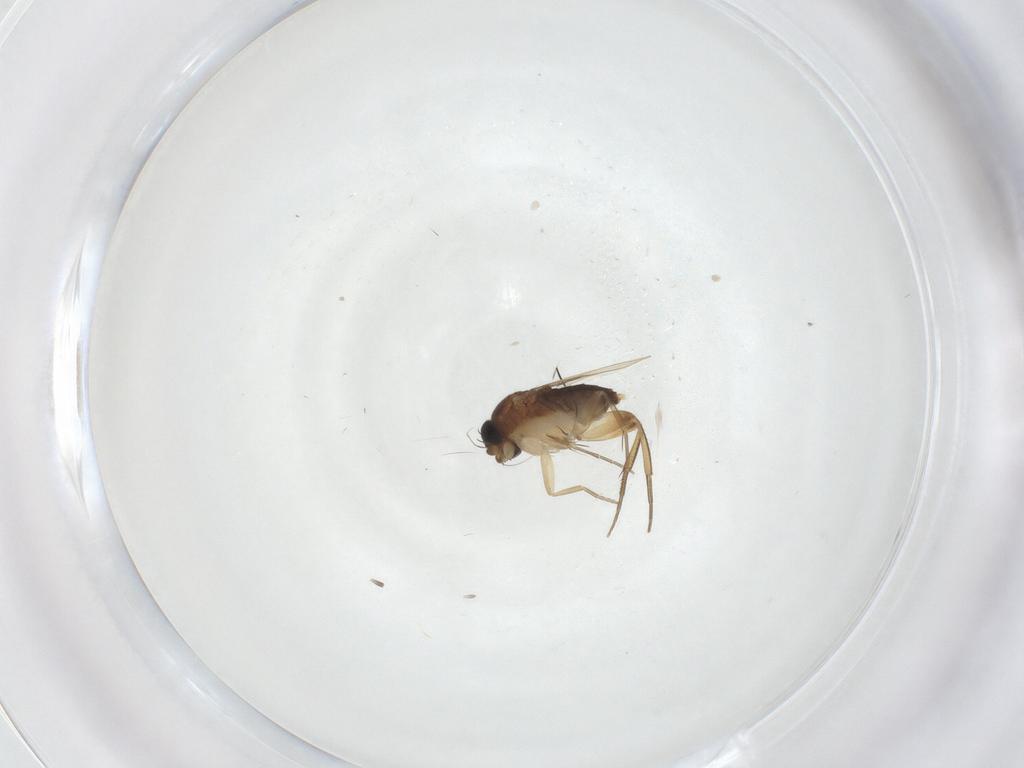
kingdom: Animalia
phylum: Arthropoda
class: Insecta
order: Diptera
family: Phoridae
